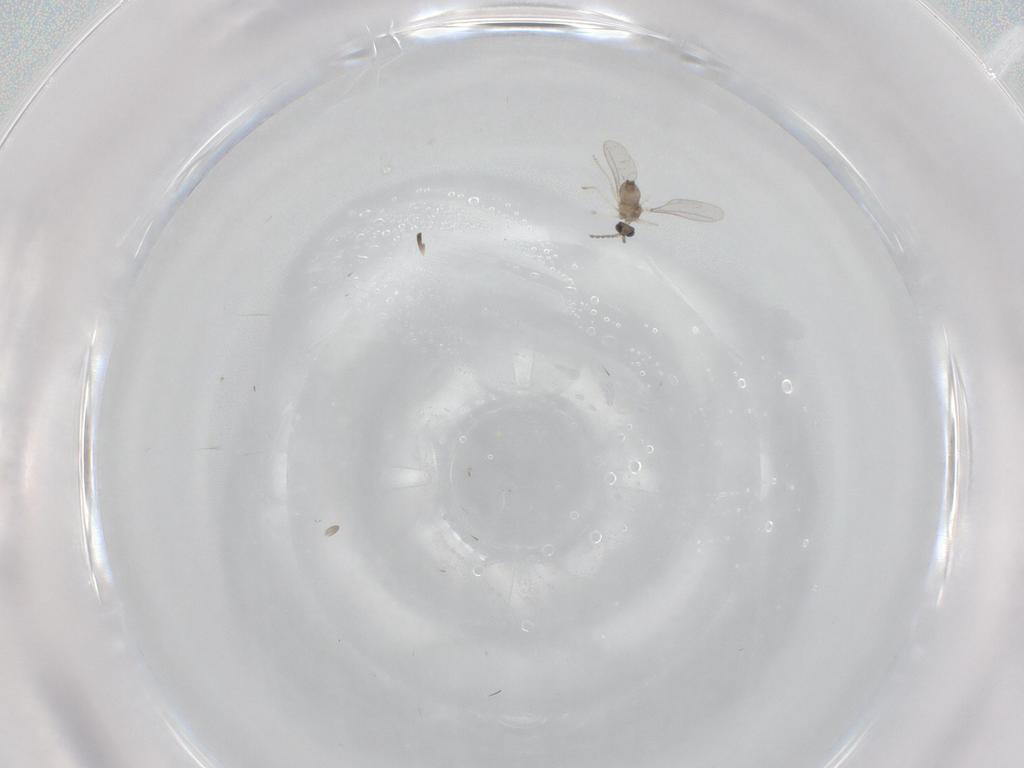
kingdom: Animalia
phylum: Arthropoda
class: Insecta
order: Diptera
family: Cecidomyiidae
